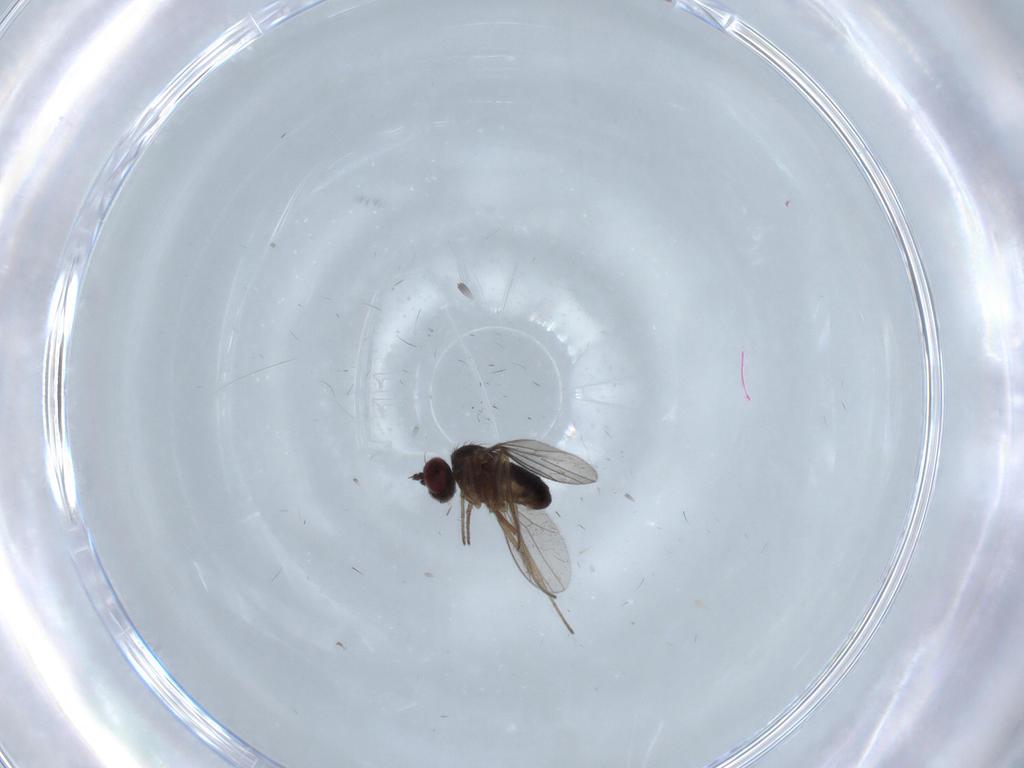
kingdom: Animalia
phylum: Arthropoda
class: Insecta
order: Diptera
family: Dolichopodidae
